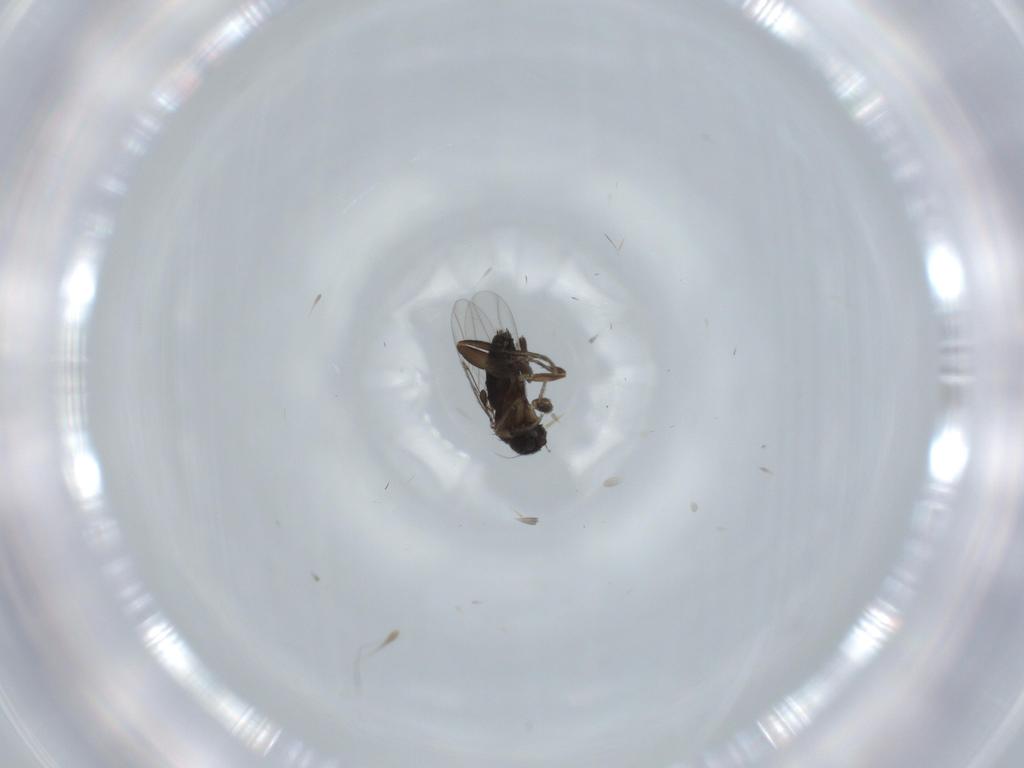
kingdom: Animalia
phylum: Arthropoda
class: Insecta
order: Diptera
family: Phoridae
